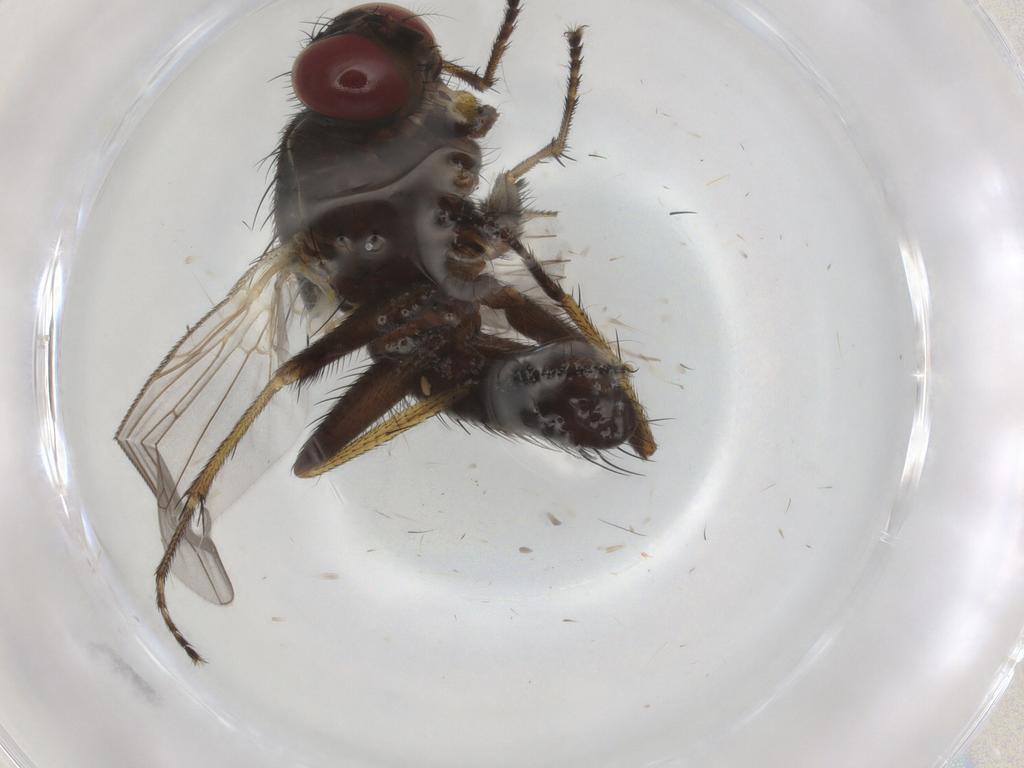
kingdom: Animalia
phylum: Arthropoda
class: Insecta
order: Diptera
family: Muscidae
